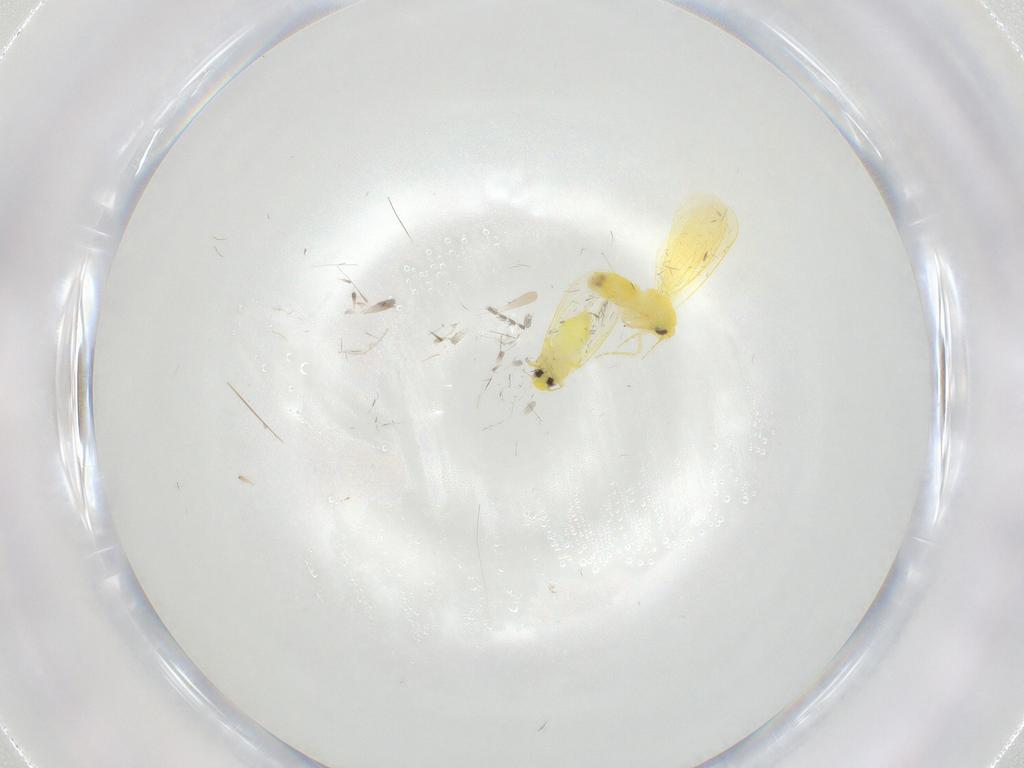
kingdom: Animalia
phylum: Arthropoda
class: Insecta
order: Hemiptera
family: Aleyrodidae
